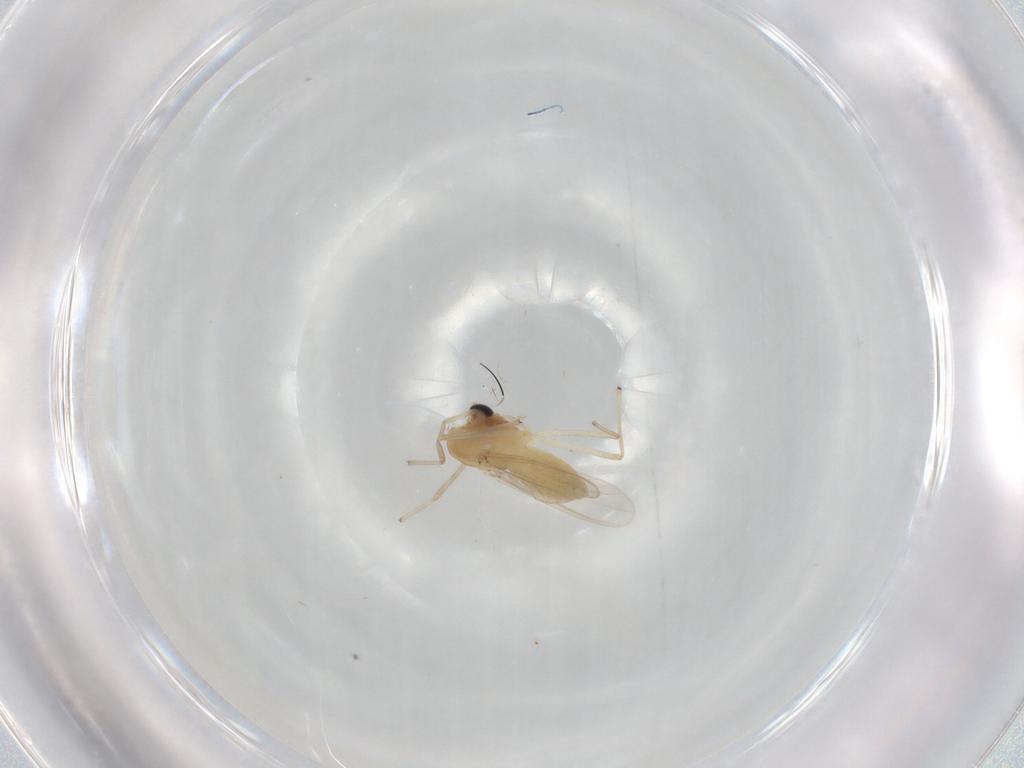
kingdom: Animalia
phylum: Arthropoda
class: Insecta
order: Diptera
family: Chironomidae
